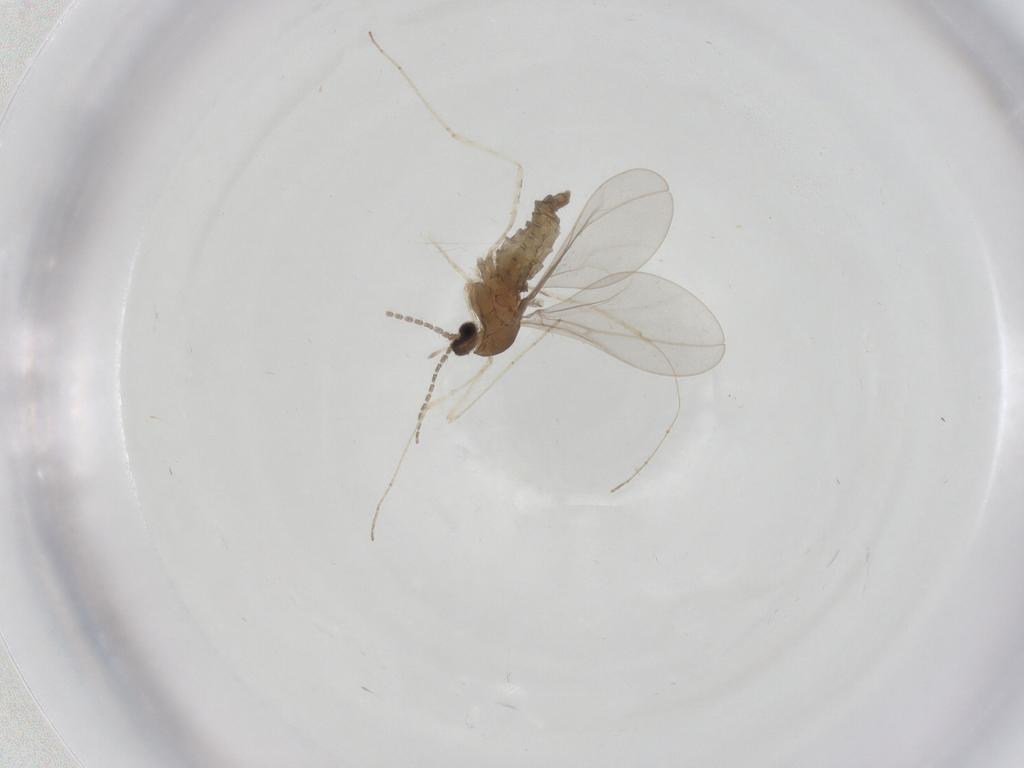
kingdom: Animalia
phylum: Arthropoda
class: Insecta
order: Diptera
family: Cecidomyiidae
